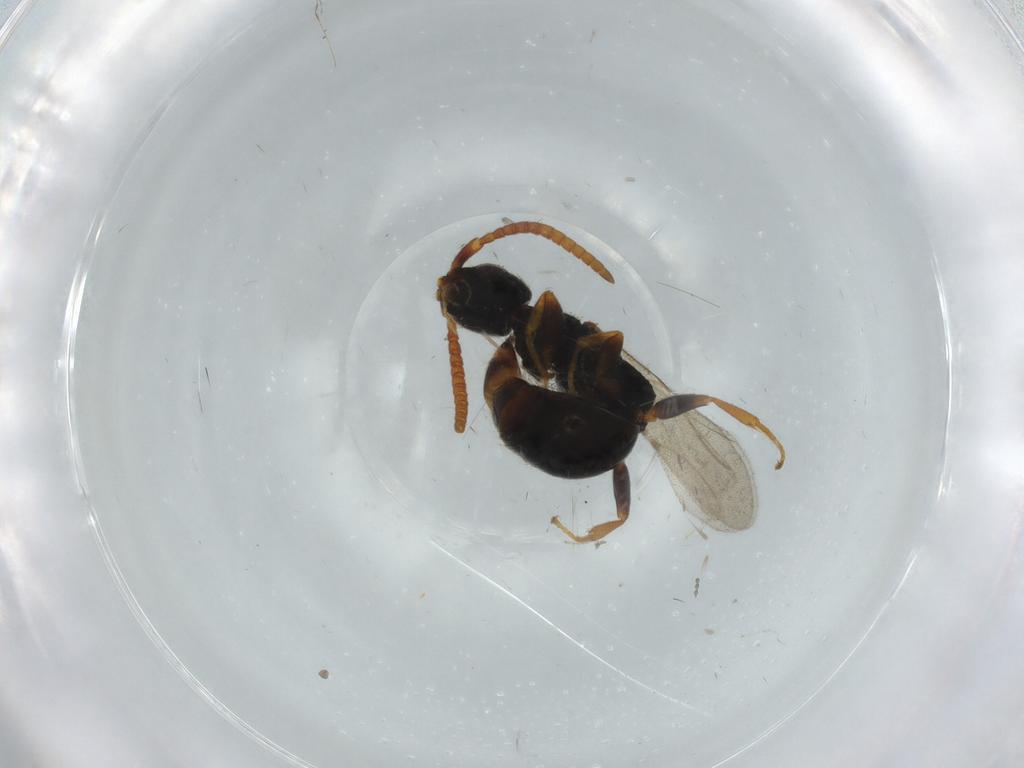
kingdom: Animalia
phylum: Arthropoda
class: Insecta
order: Hymenoptera
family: Bethylidae
